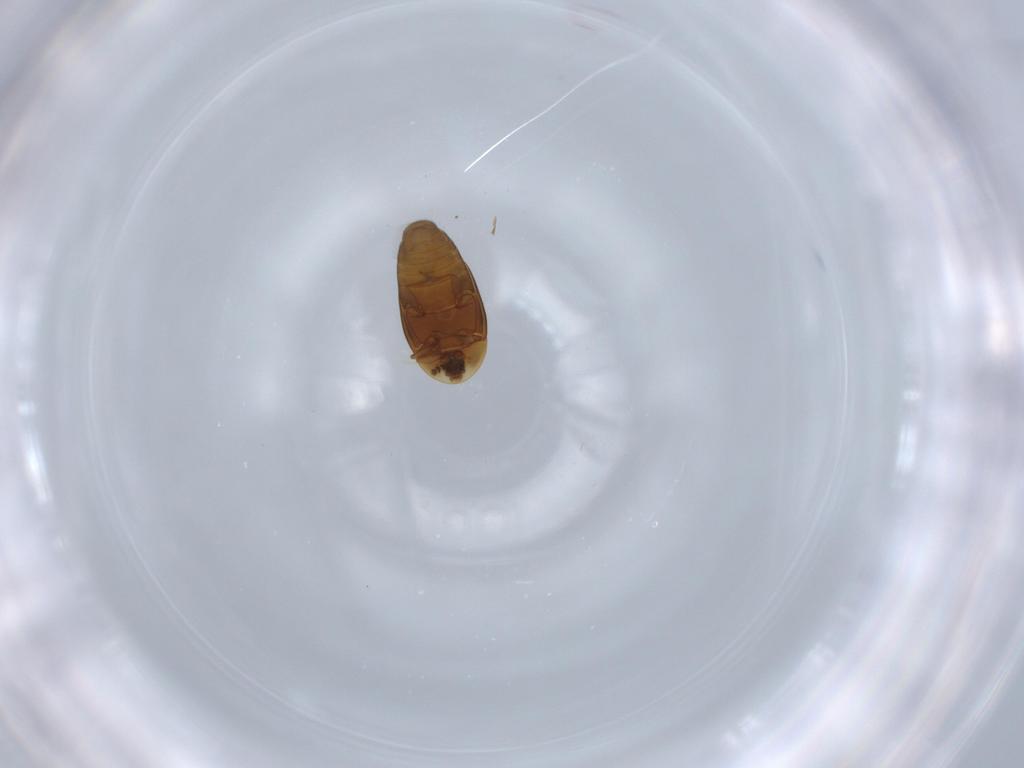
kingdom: Animalia
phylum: Arthropoda
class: Insecta
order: Coleoptera
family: Corylophidae
